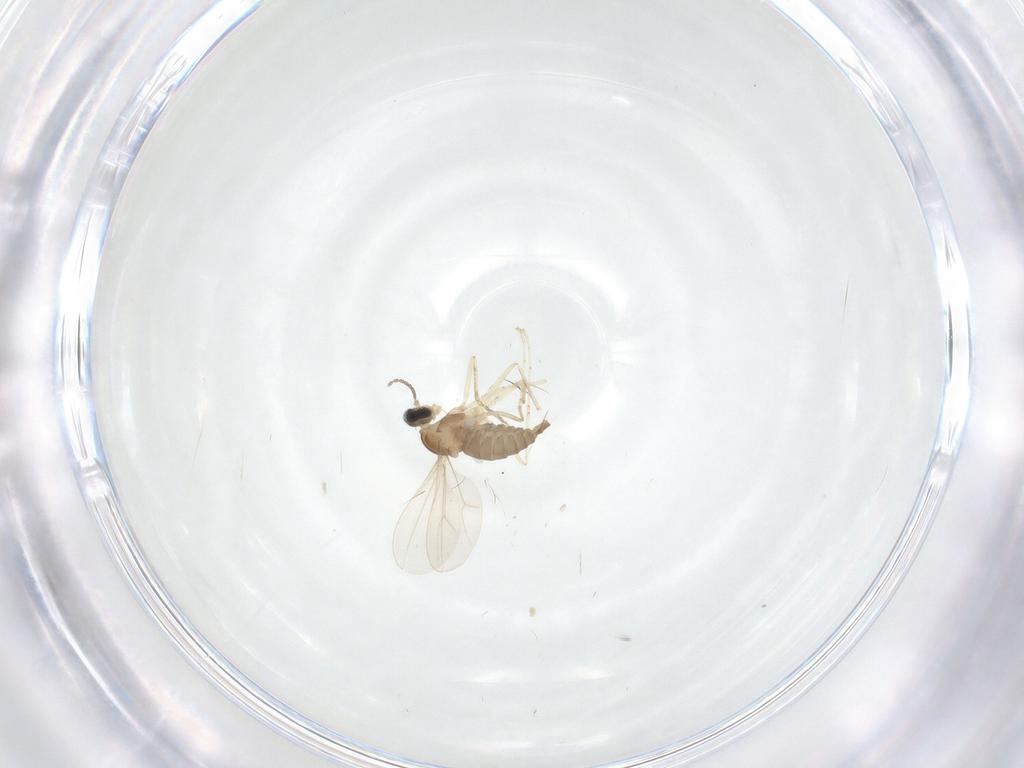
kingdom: Animalia
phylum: Arthropoda
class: Insecta
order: Diptera
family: Cecidomyiidae
